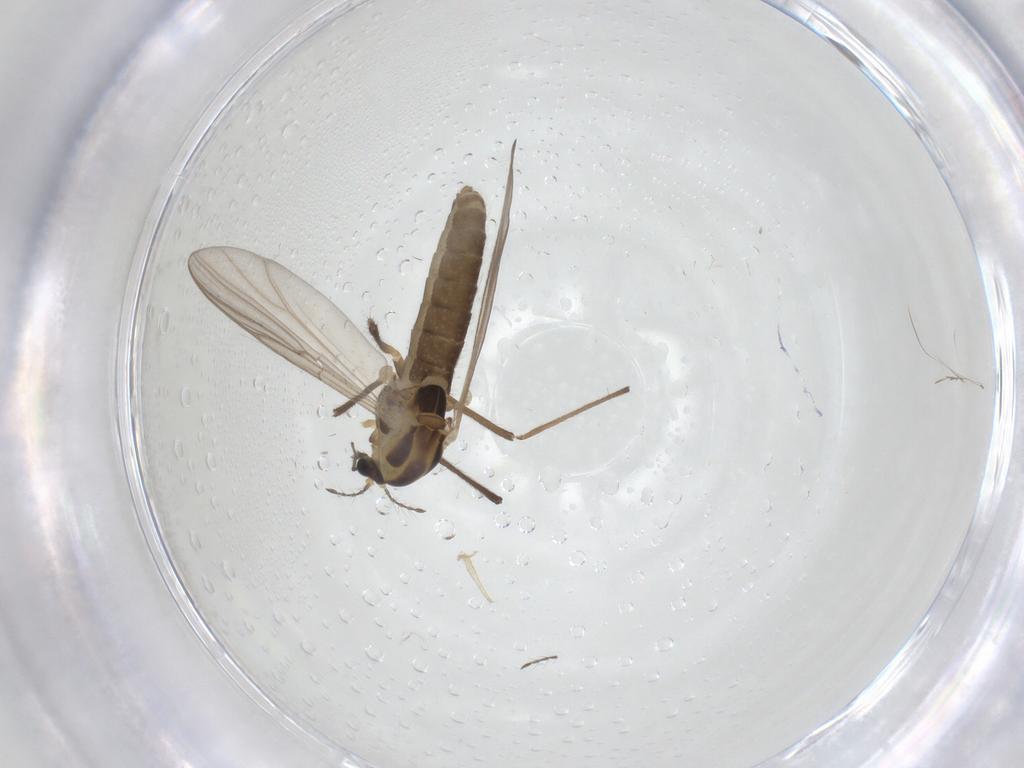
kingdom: Animalia
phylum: Arthropoda
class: Insecta
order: Diptera
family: Chironomidae
